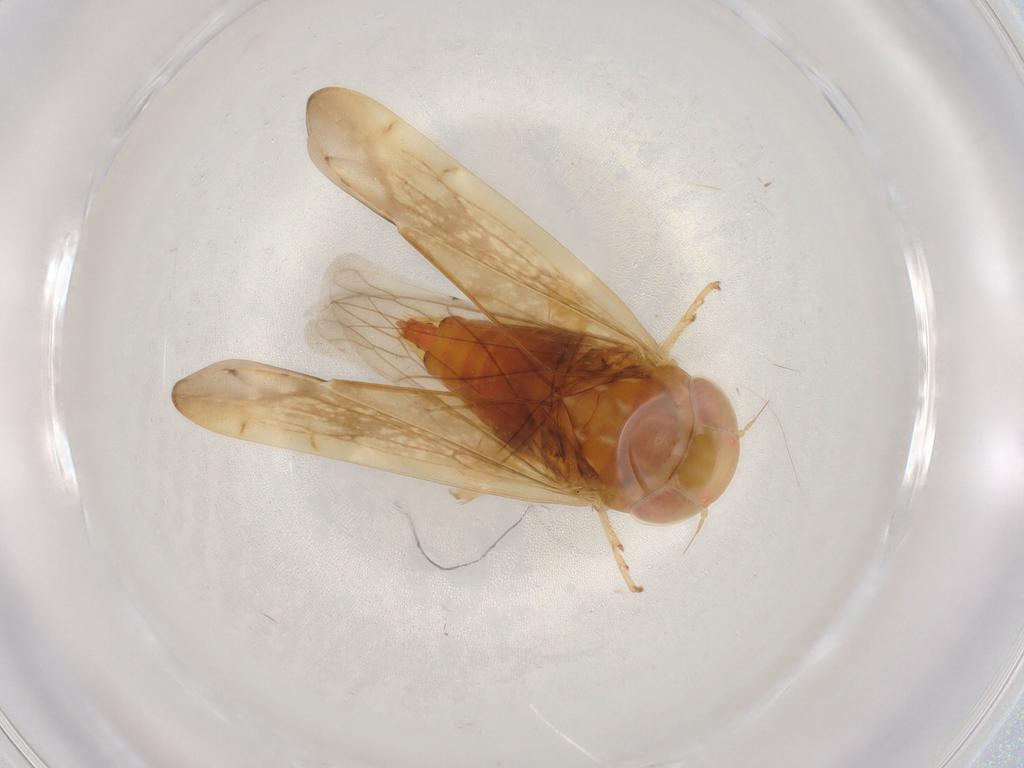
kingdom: Animalia
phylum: Arthropoda
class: Insecta
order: Hemiptera
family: Cicadellidae
